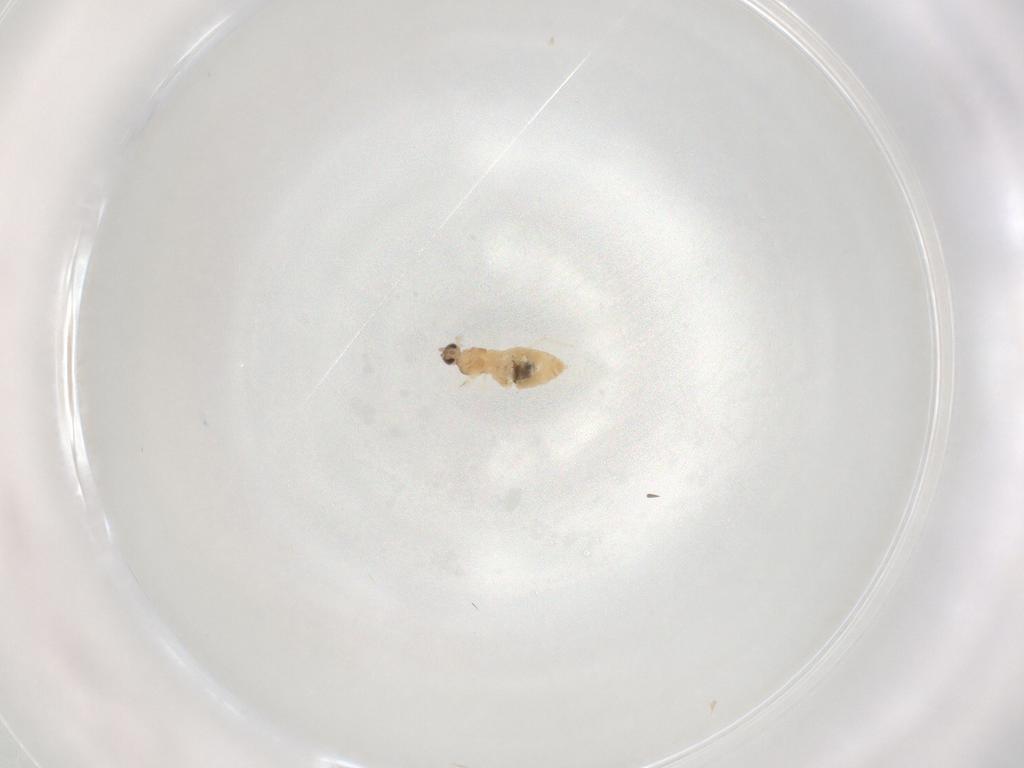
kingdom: Animalia
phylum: Arthropoda
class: Insecta
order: Diptera
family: Cecidomyiidae
